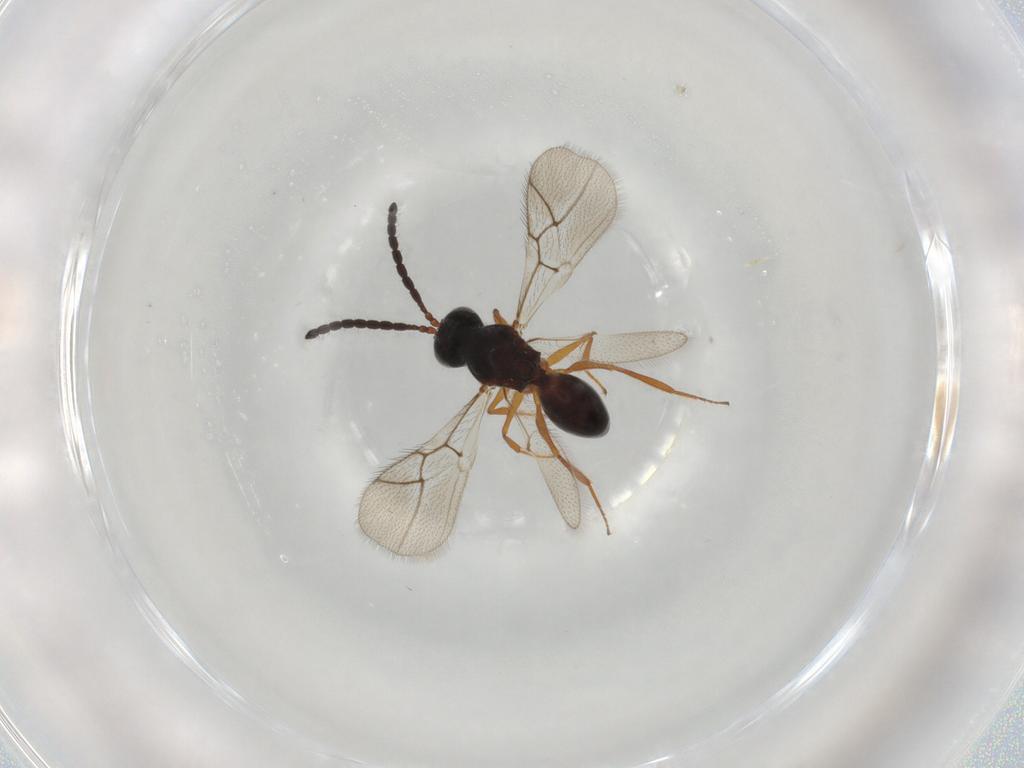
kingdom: Animalia
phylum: Arthropoda
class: Insecta
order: Hymenoptera
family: Figitidae
